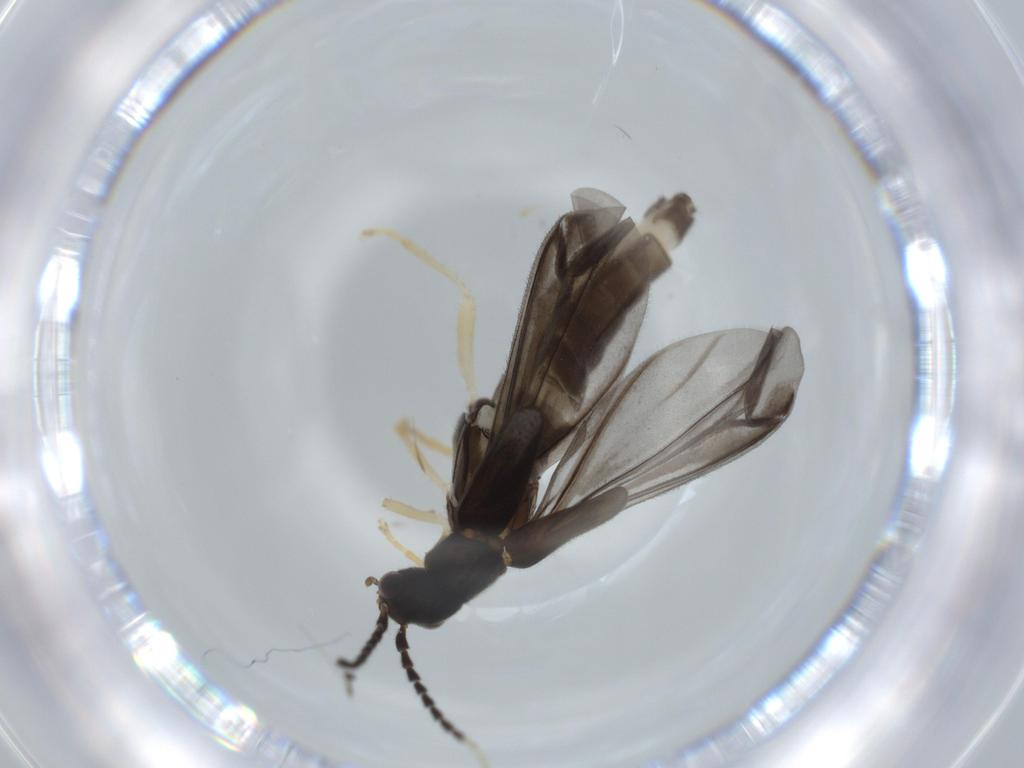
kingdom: Animalia
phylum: Arthropoda
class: Insecta
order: Coleoptera
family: Cantharidae
